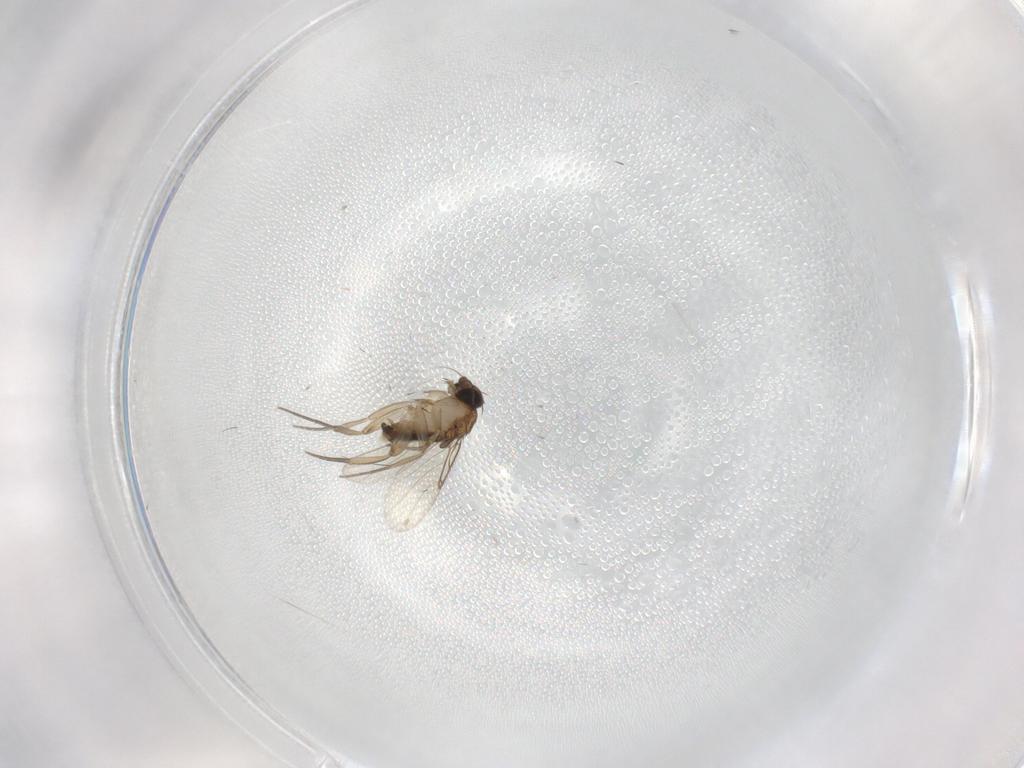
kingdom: Animalia
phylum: Arthropoda
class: Insecta
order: Diptera
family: Phoridae
